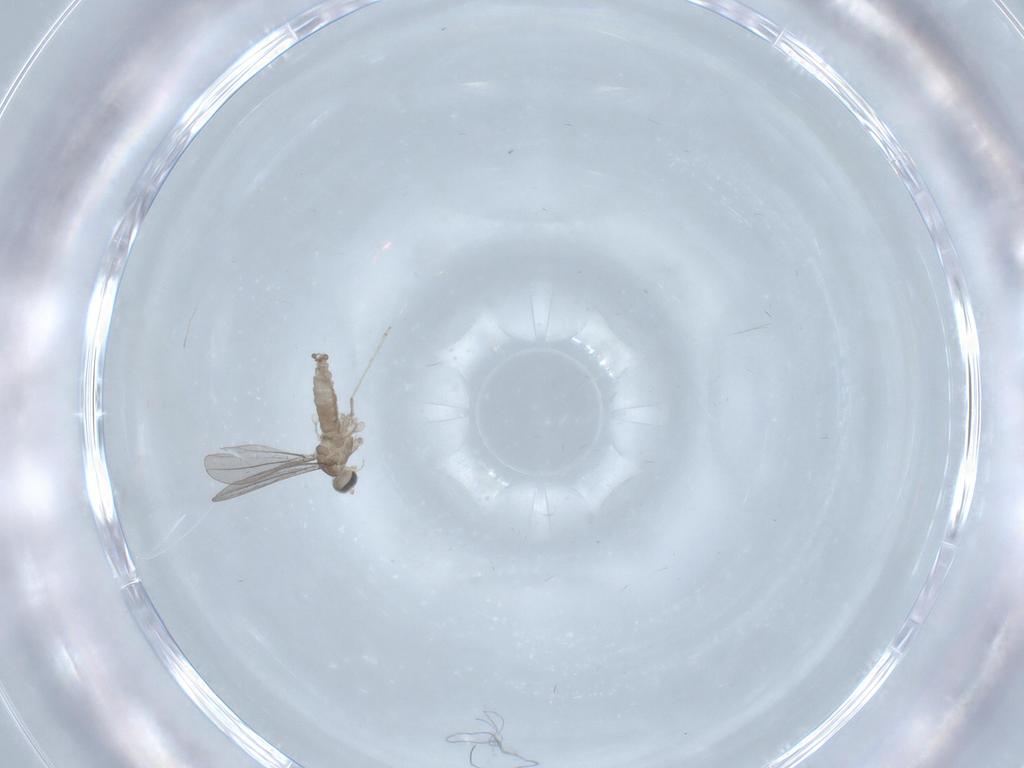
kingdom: Animalia
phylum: Arthropoda
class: Insecta
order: Diptera
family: Cecidomyiidae
